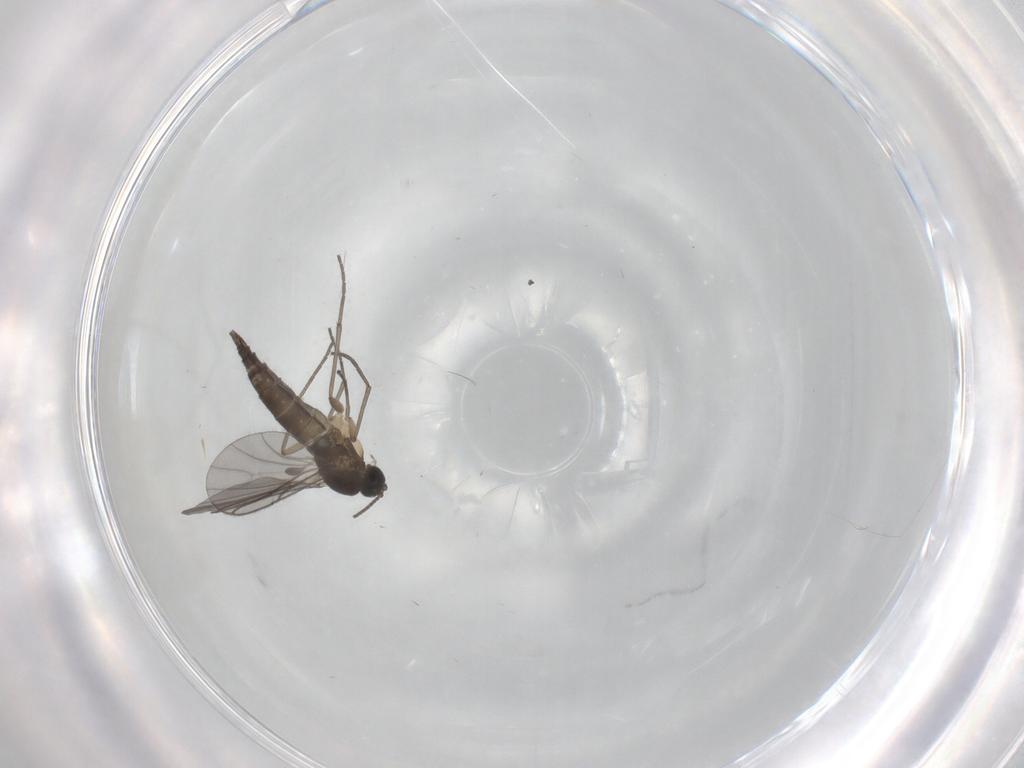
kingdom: Animalia
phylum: Arthropoda
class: Insecta
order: Diptera
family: Sciaridae
